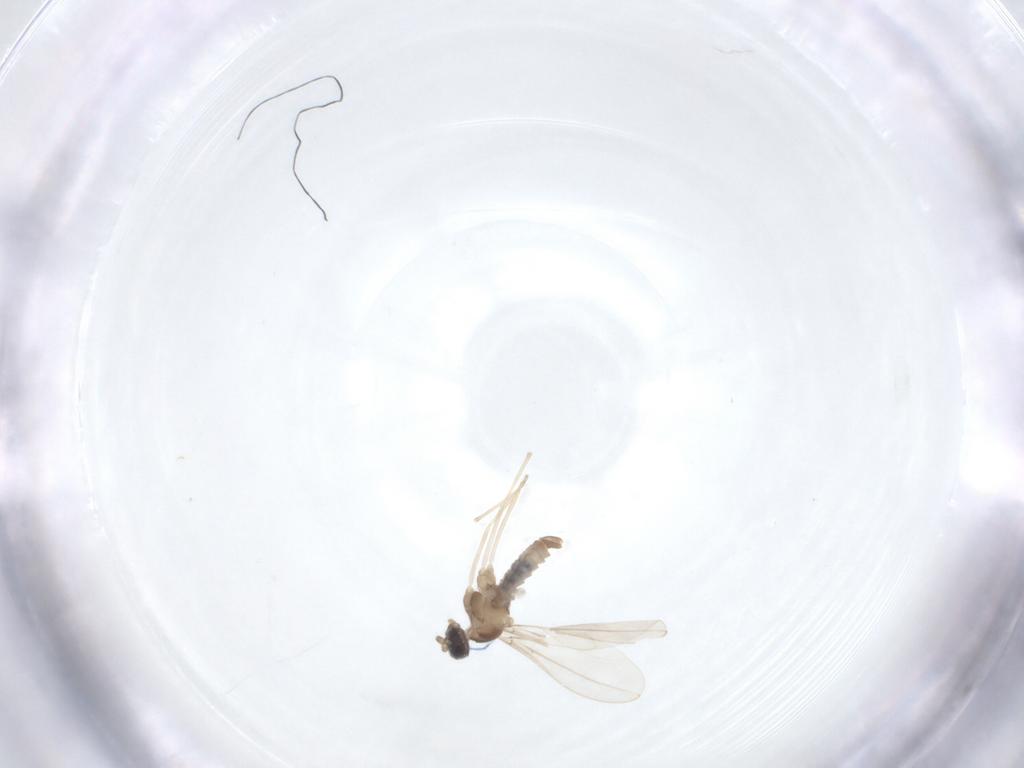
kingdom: Animalia
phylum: Arthropoda
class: Insecta
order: Diptera
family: Cecidomyiidae
